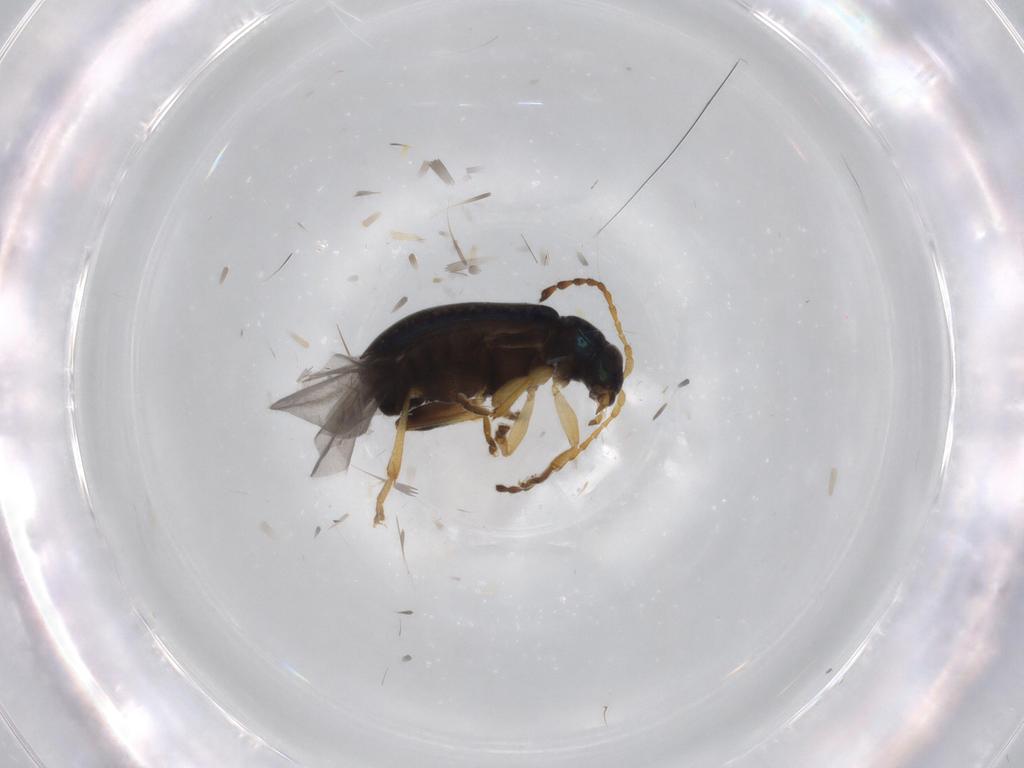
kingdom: Animalia
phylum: Arthropoda
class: Insecta
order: Coleoptera
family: Chrysomelidae
